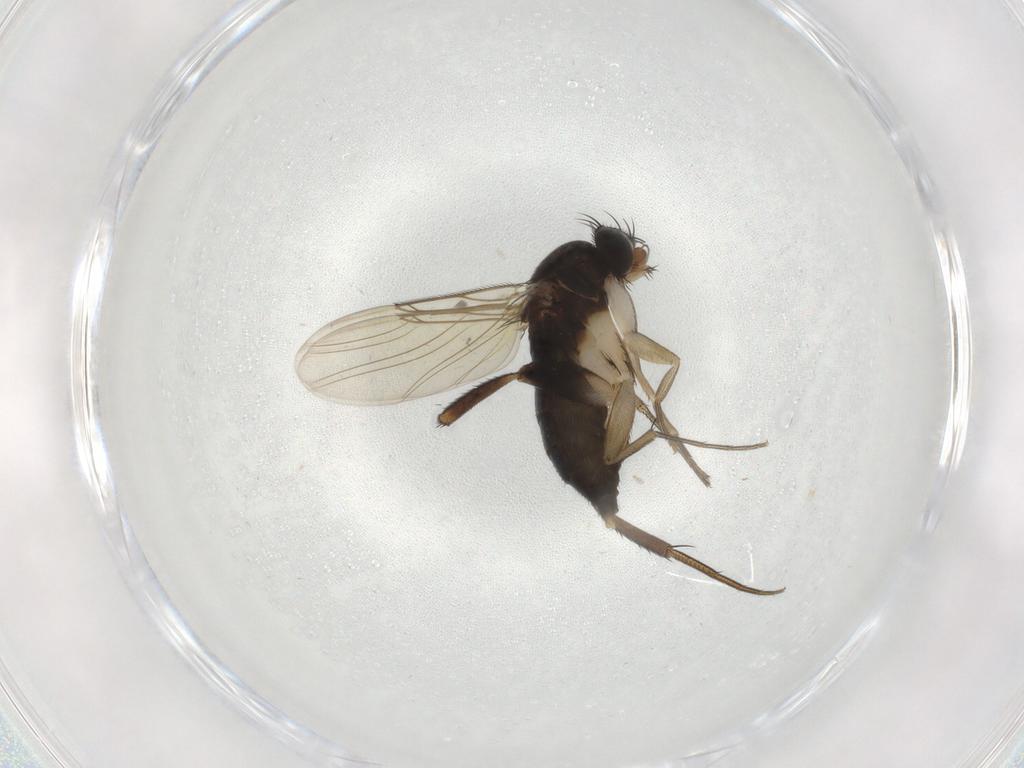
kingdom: Animalia
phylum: Arthropoda
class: Insecta
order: Diptera
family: Phoridae
